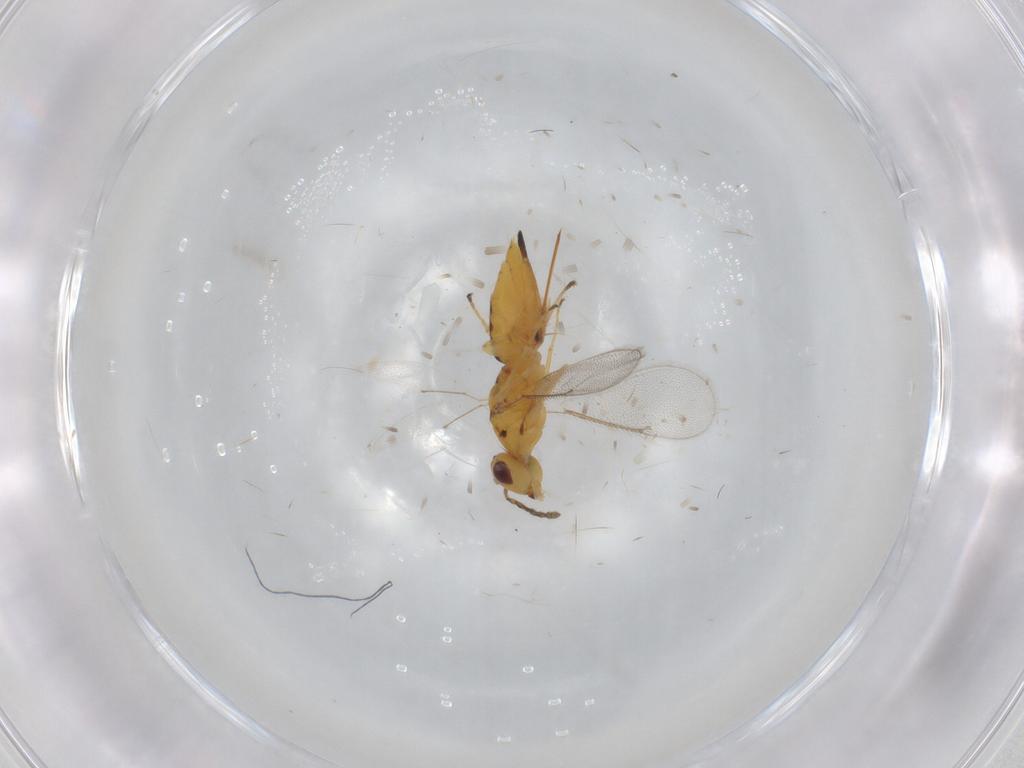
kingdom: Animalia
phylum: Arthropoda
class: Insecta
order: Hymenoptera
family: Eulophidae
